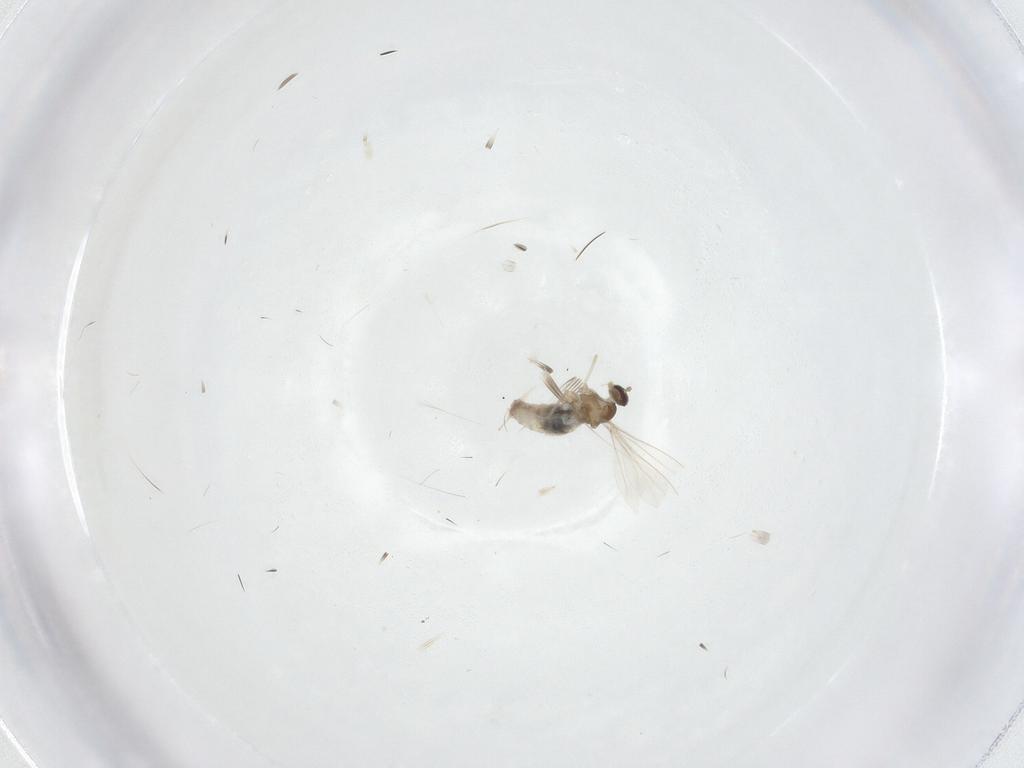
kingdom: Animalia
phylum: Arthropoda
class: Insecta
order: Diptera
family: Cecidomyiidae
